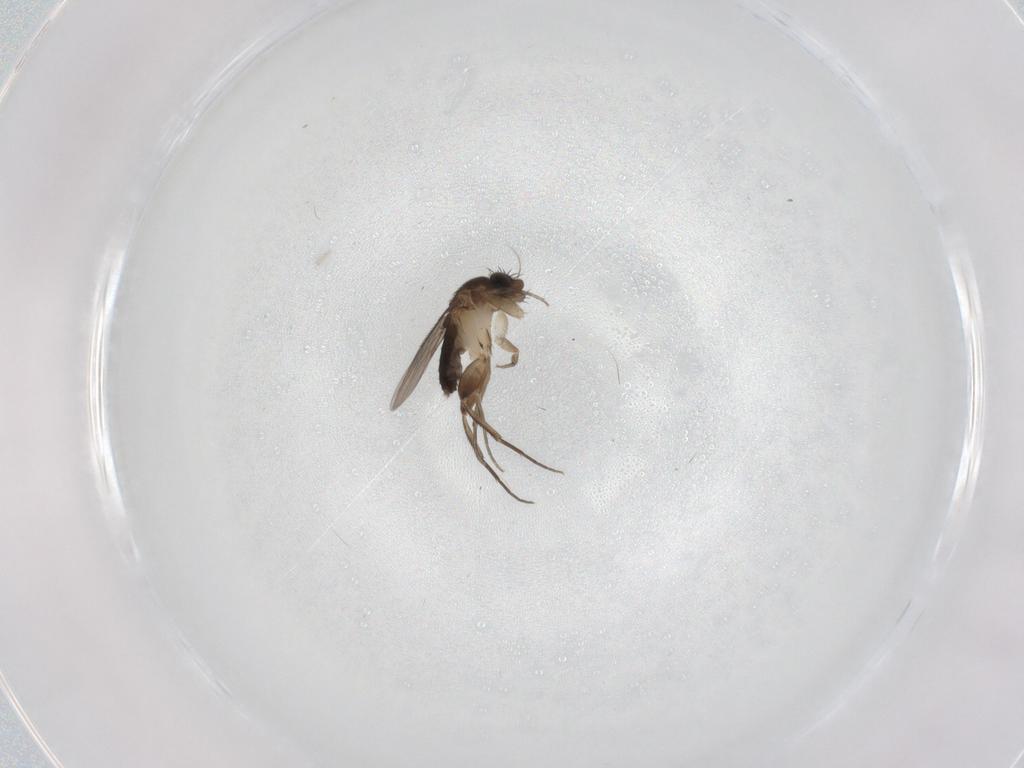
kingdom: Animalia
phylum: Arthropoda
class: Insecta
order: Diptera
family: Phoridae
